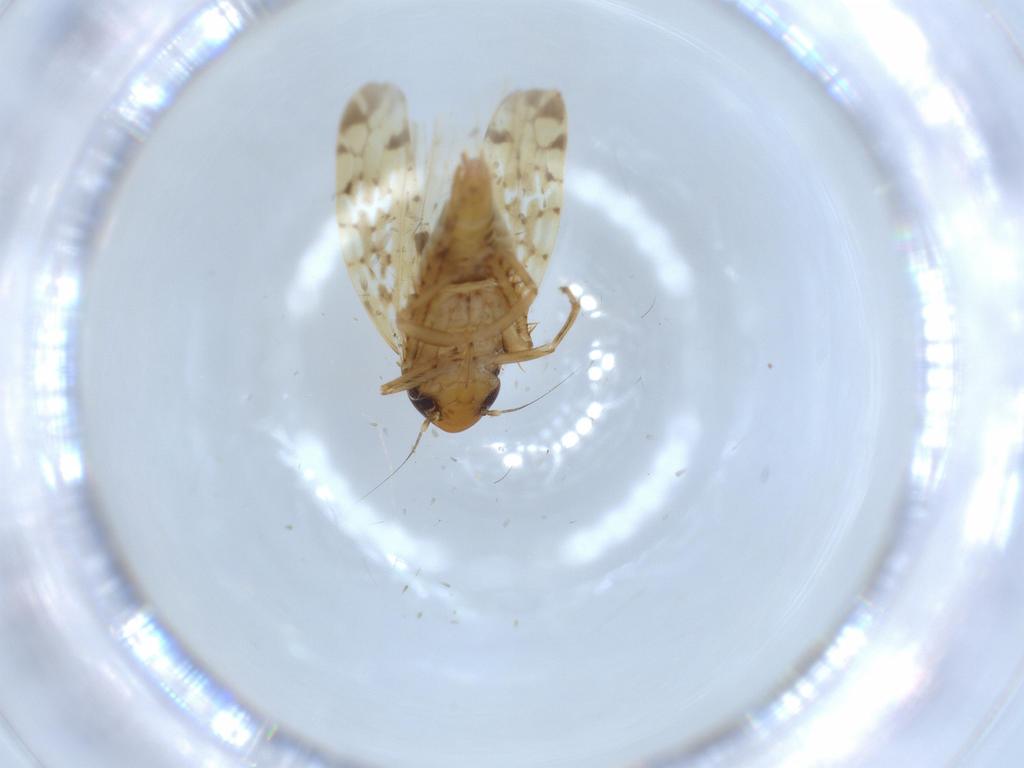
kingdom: Animalia
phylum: Arthropoda
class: Insecta
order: Hemiptera
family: Cicadellidae
